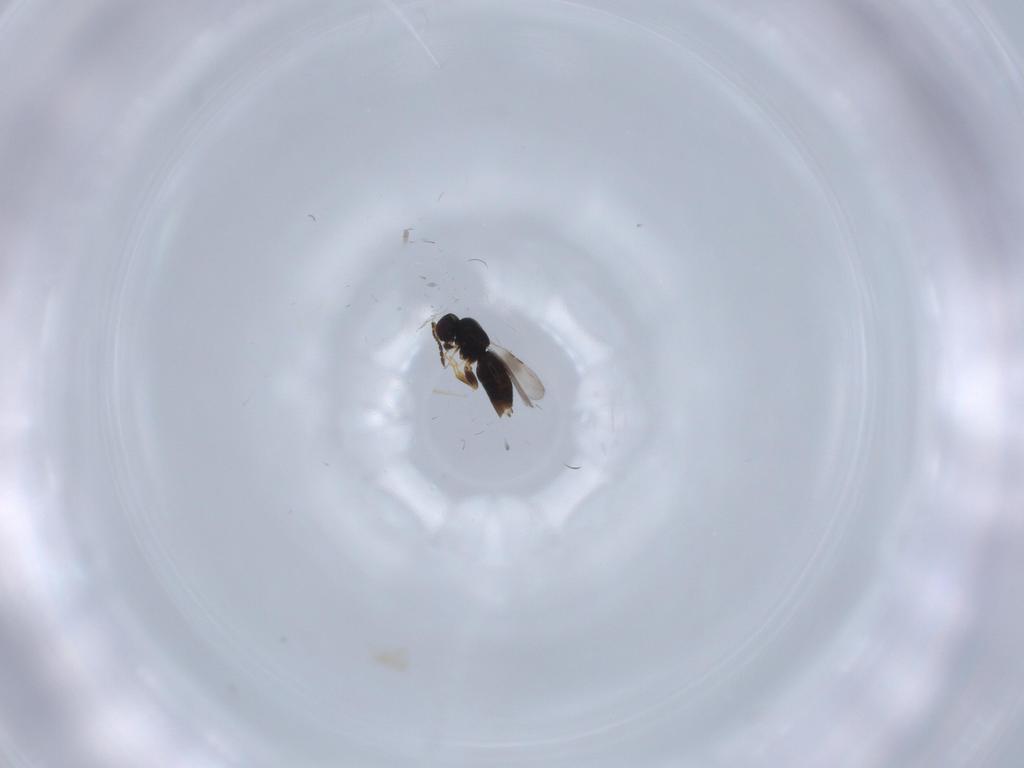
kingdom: Animalia
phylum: Arthropoda
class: Insecta
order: Hymenoptera
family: Ceraphronidae
